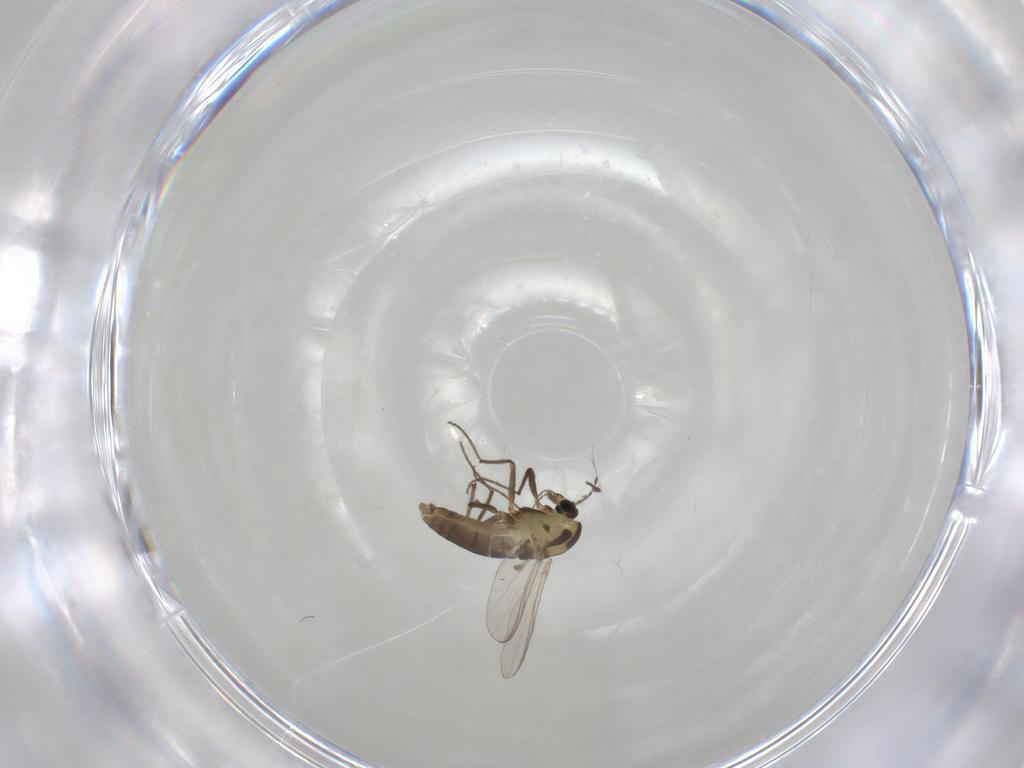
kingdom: Animalia
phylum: Arthropoda
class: Insecta
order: Diptera
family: Chironomidae
